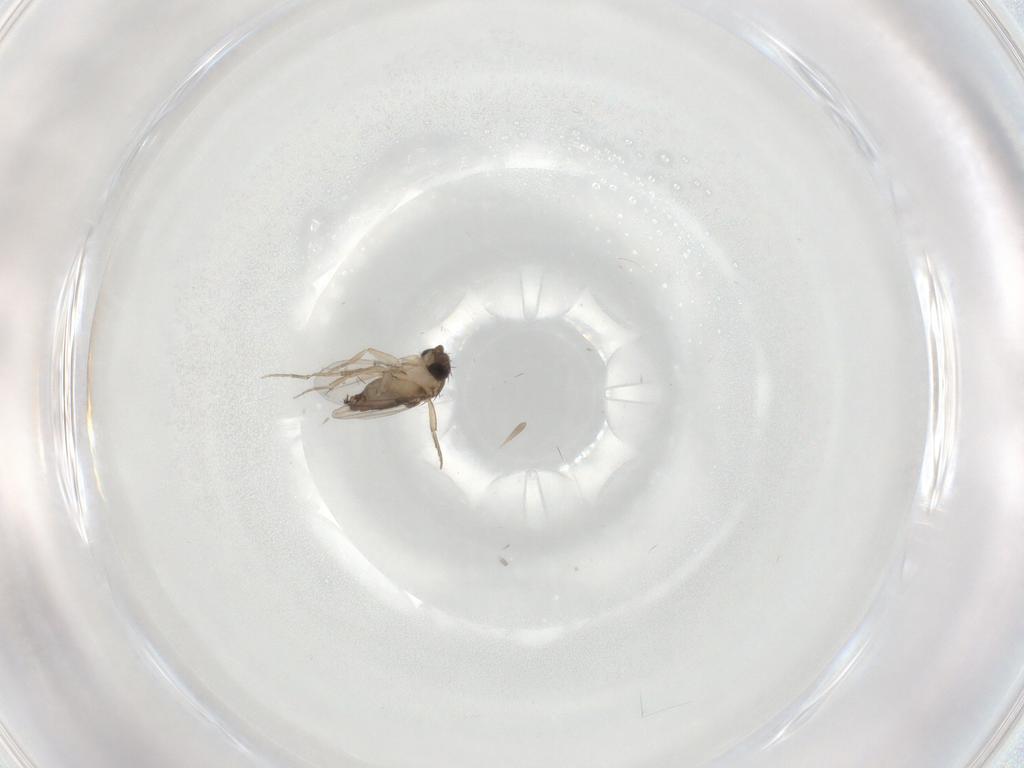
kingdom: Animalia
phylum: Arthropoda
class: Insecta
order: Diptera
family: Phoridae
